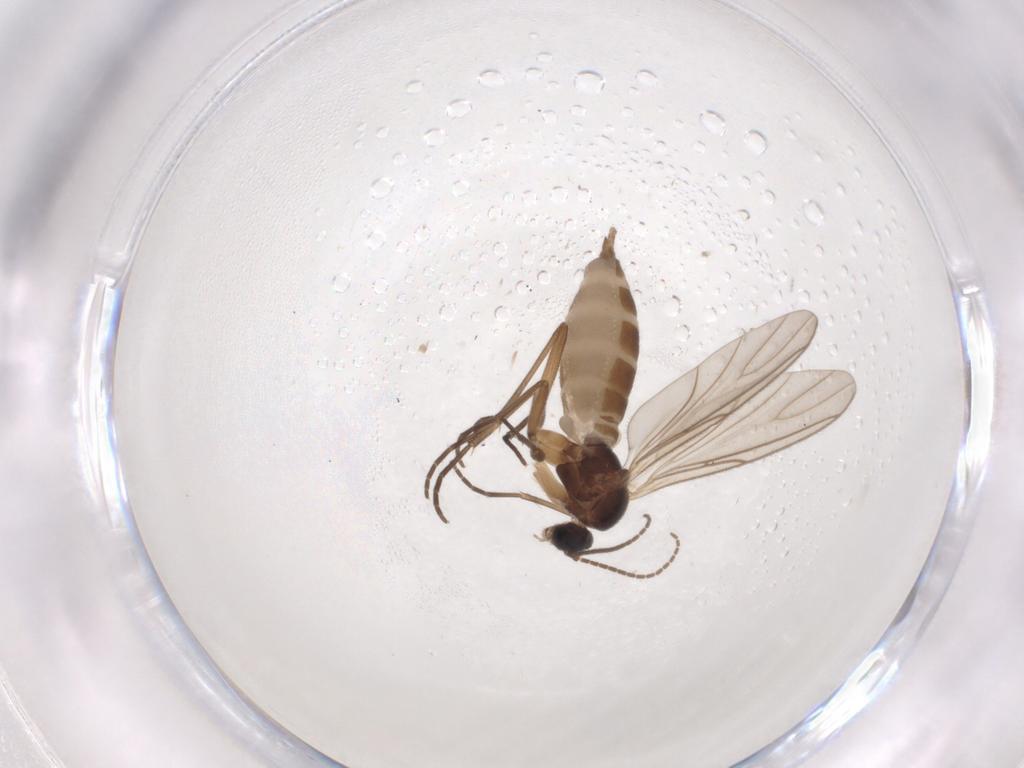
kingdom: Animalia
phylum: Arthropoda
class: Insecta
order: Diptera
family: Sciaridae
